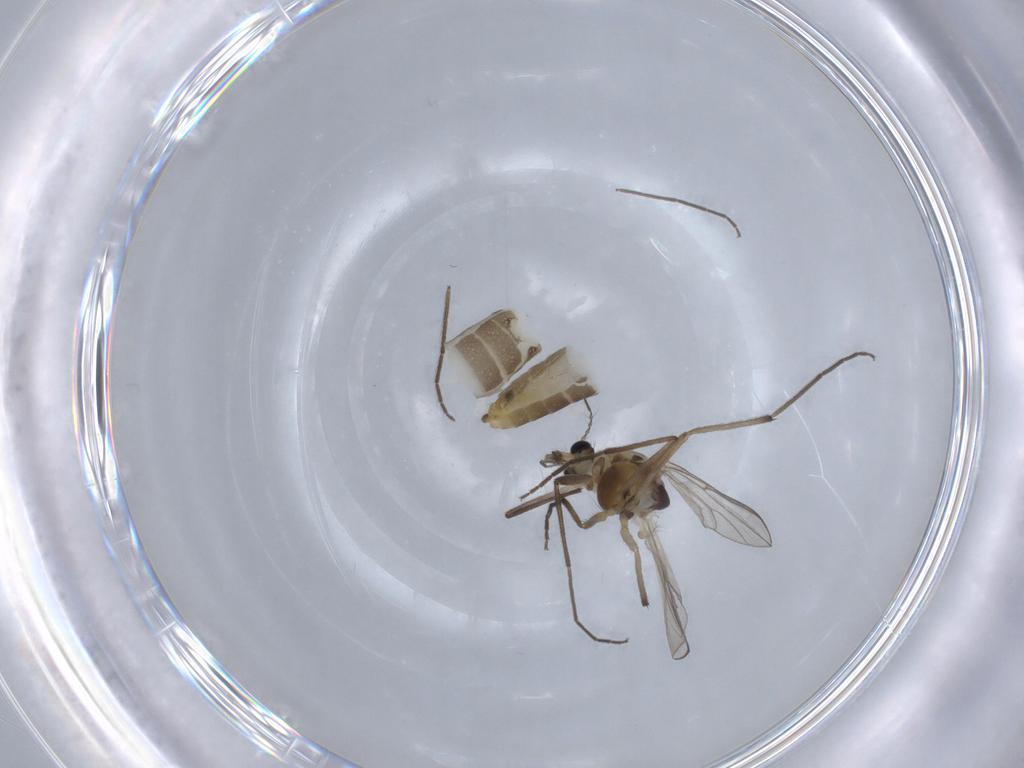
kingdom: Animalia
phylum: Arthropoda
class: Insecta
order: Diptera
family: Chironomidae
